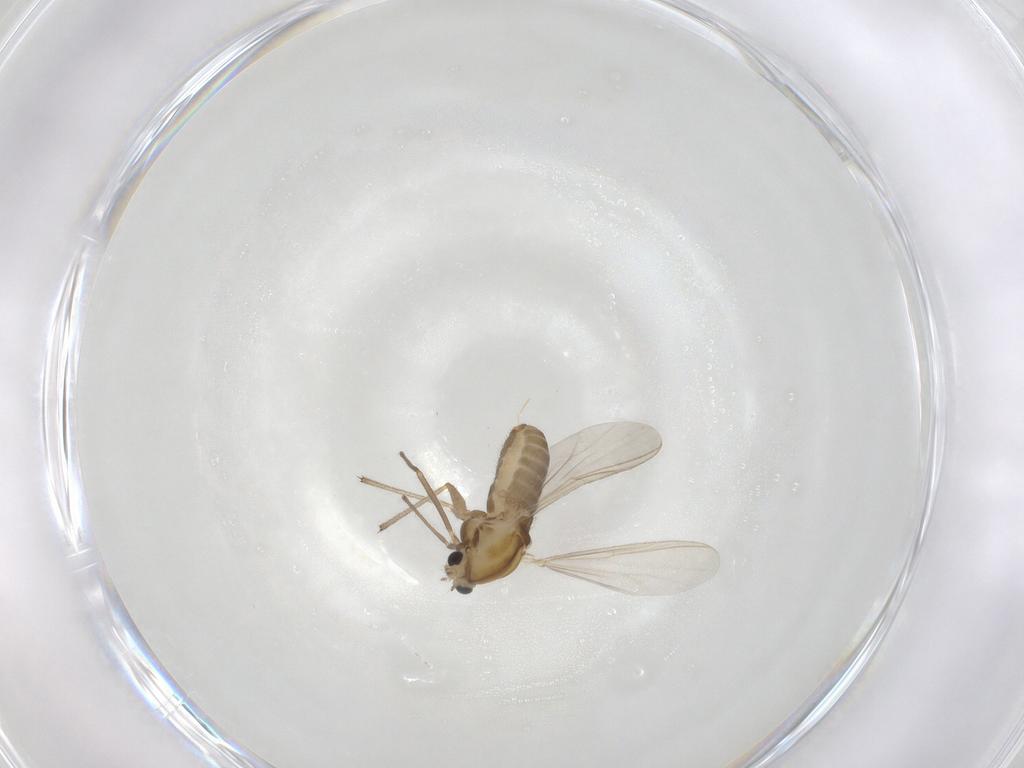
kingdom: Animalia
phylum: Arthropoda
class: Insecta
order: Diptera
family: Chironomidae
